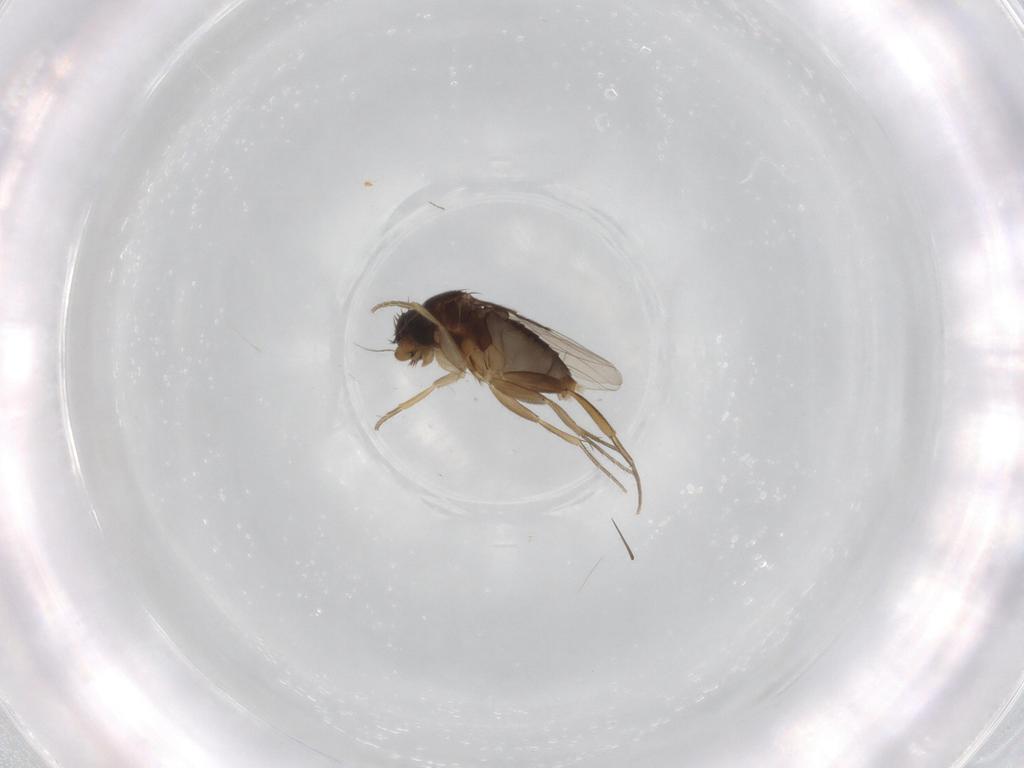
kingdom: Animalia
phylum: Arthropoda
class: Insecta
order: Diptera
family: Phoridae
